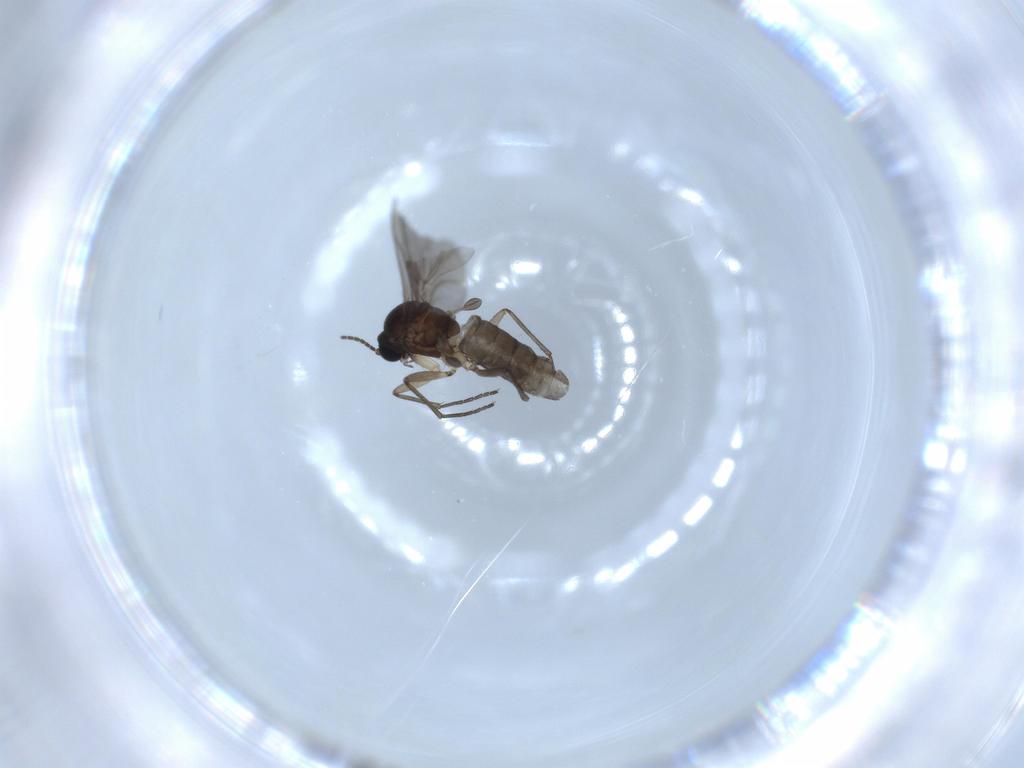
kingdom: Animalia
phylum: Arthropoda
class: Insecta
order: Diptera
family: Sciaridae
